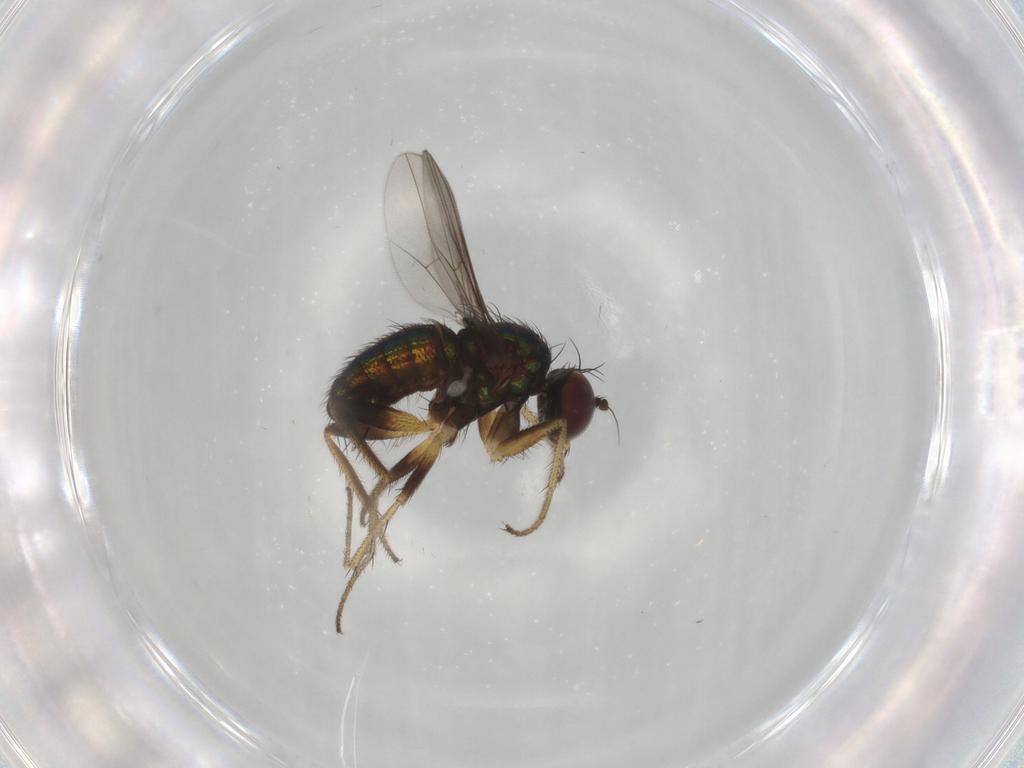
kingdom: Animalia
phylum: Arthropoda
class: Insecta
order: Diptera
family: Dolichopodidae
